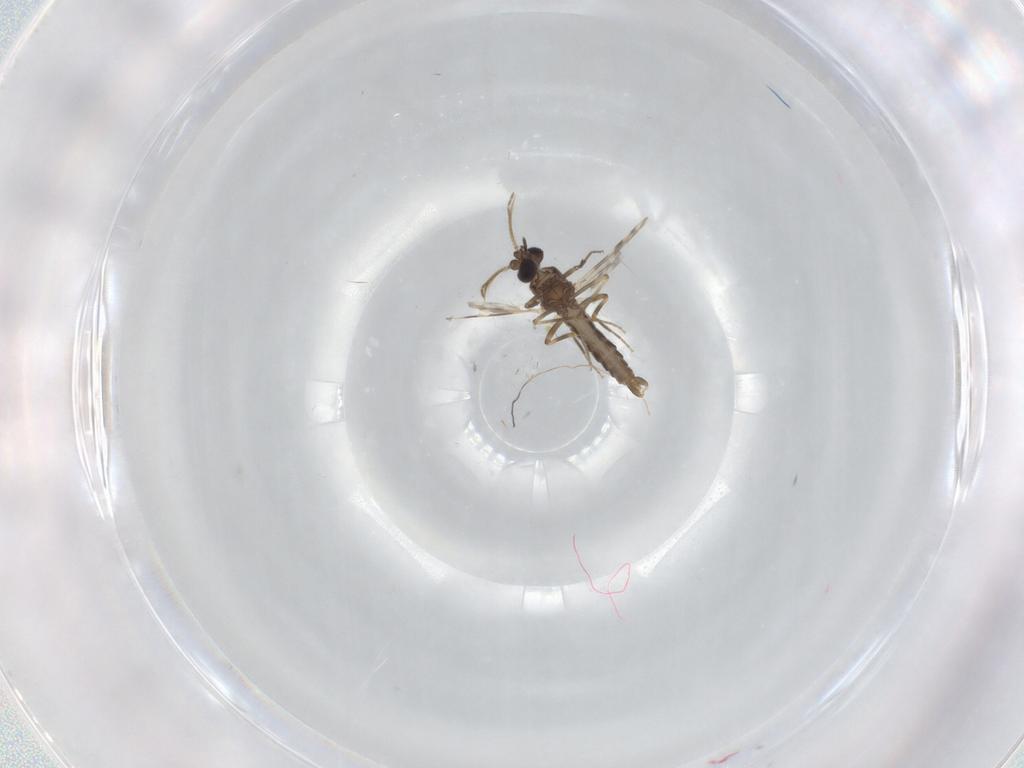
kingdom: Animalia
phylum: Arthropoda
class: Insecta
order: Diptera
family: Ceratopogonidae
